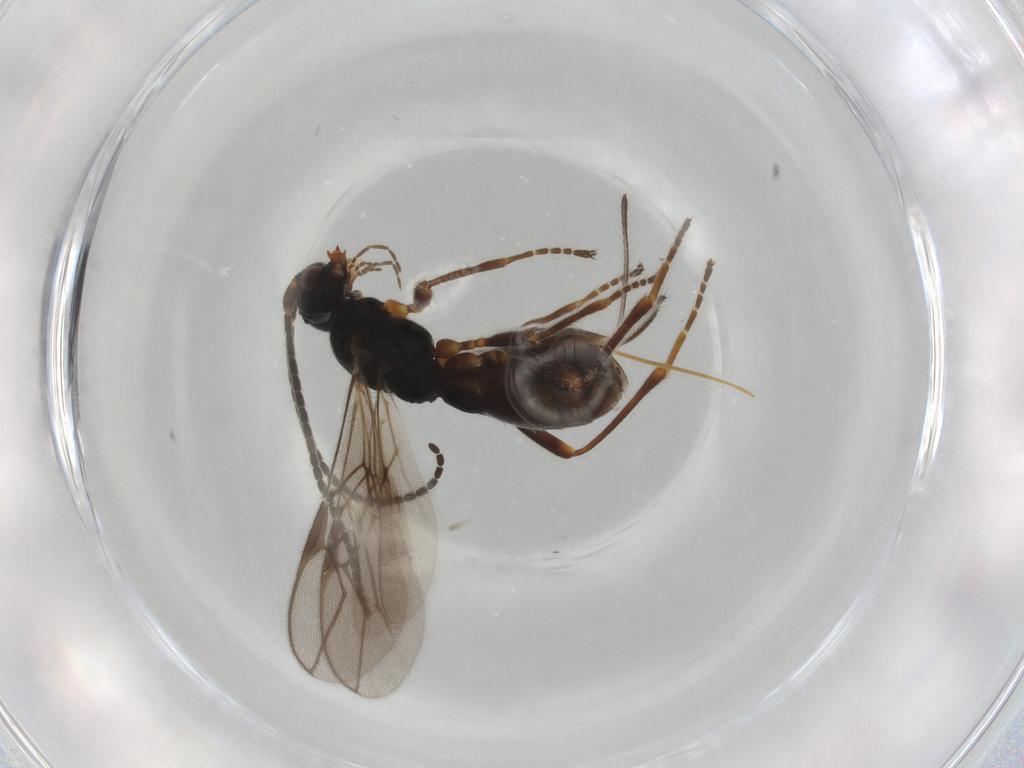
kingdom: Animalia
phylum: Arthropoda
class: Insecta
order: Hymenoptera
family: Braconidae
